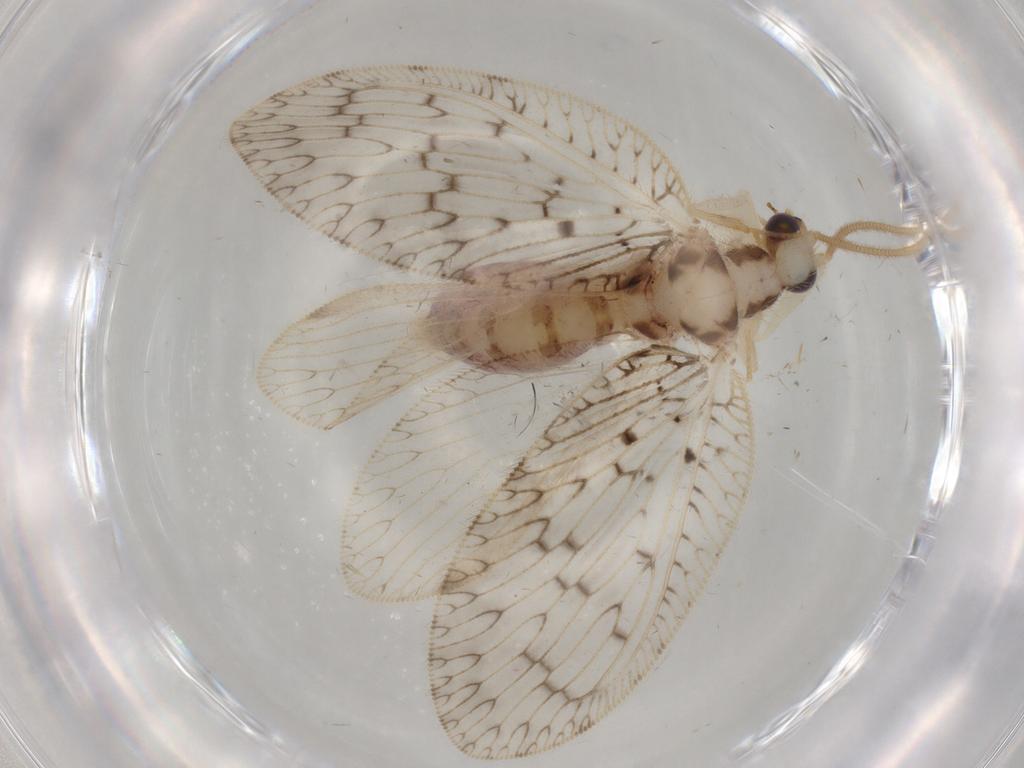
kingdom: Animalia
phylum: Arthropoda
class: Insecta
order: Neuroptera
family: Hemerobiidae
